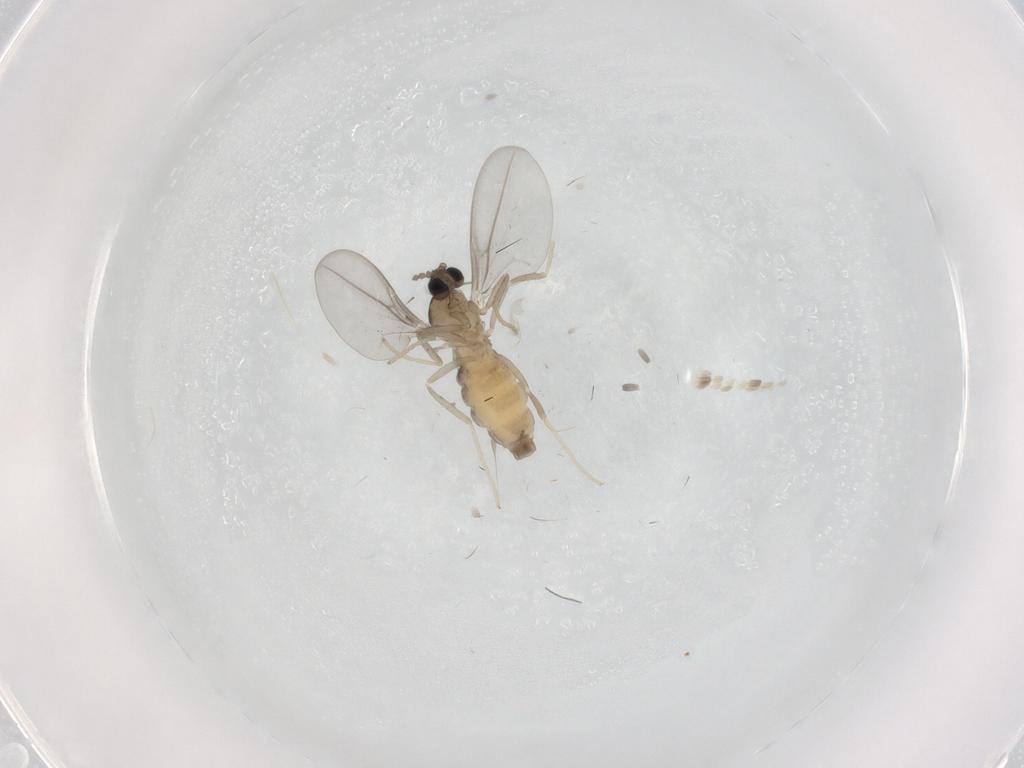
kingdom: Animalia
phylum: Arthropoda
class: Insecta
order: Diptera
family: Cecidomyiidae
